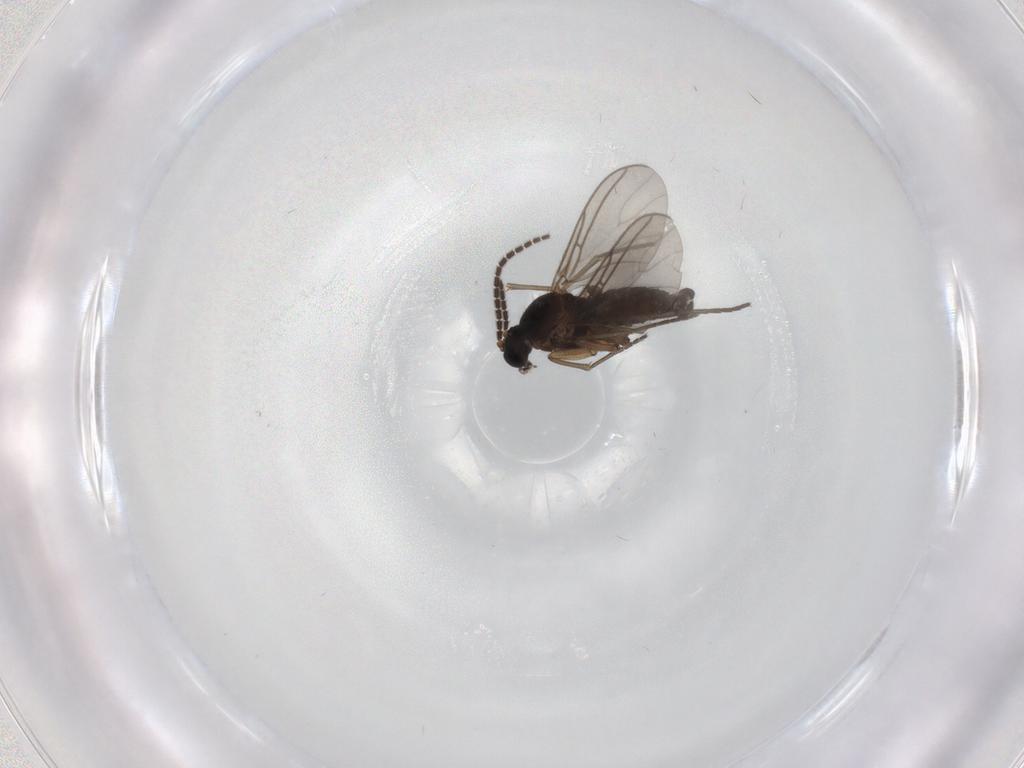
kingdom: Animalia
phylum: Arthropoda
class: Insecta
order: Diptera
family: Sciaridae
